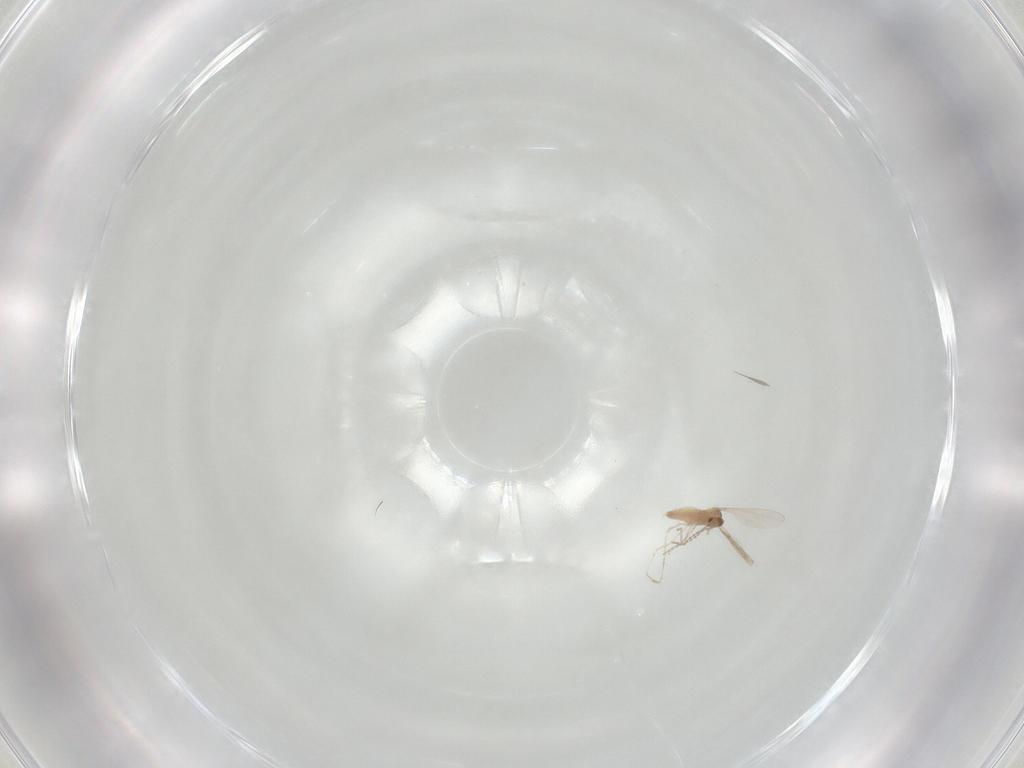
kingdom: Animalia
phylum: Arthropoda
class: Insecta
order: Diptera
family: Cecidomyiidae
